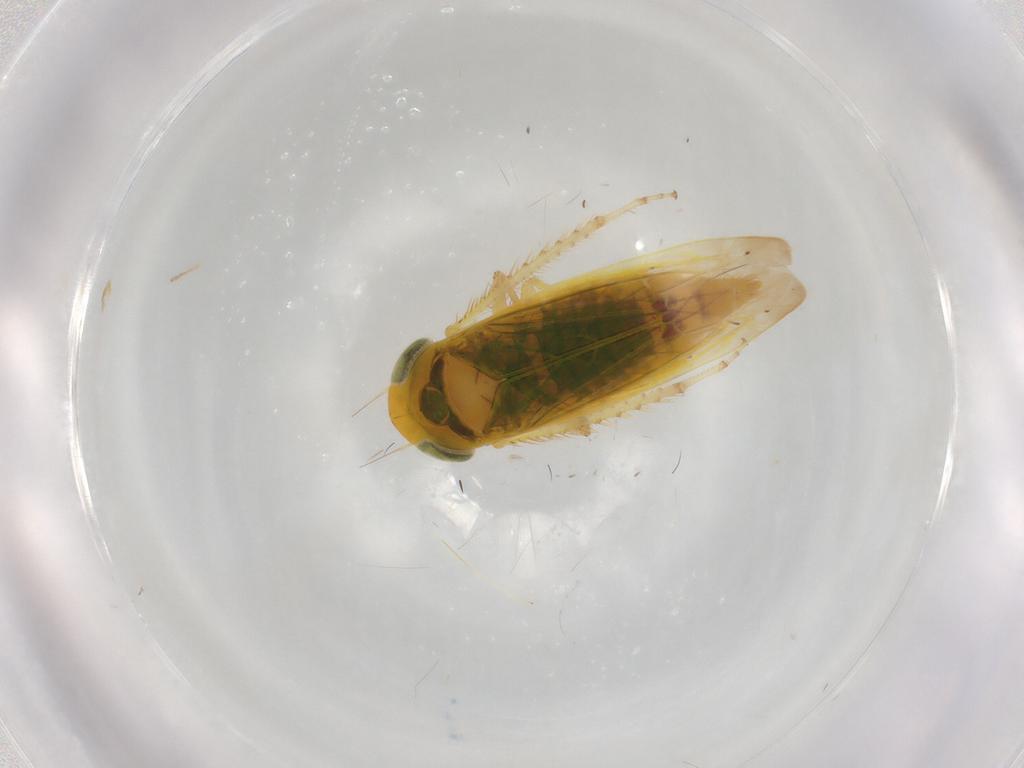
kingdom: Animalia
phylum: Arthropoda
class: Insecta
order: Hemiptera
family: Cicadellidae
